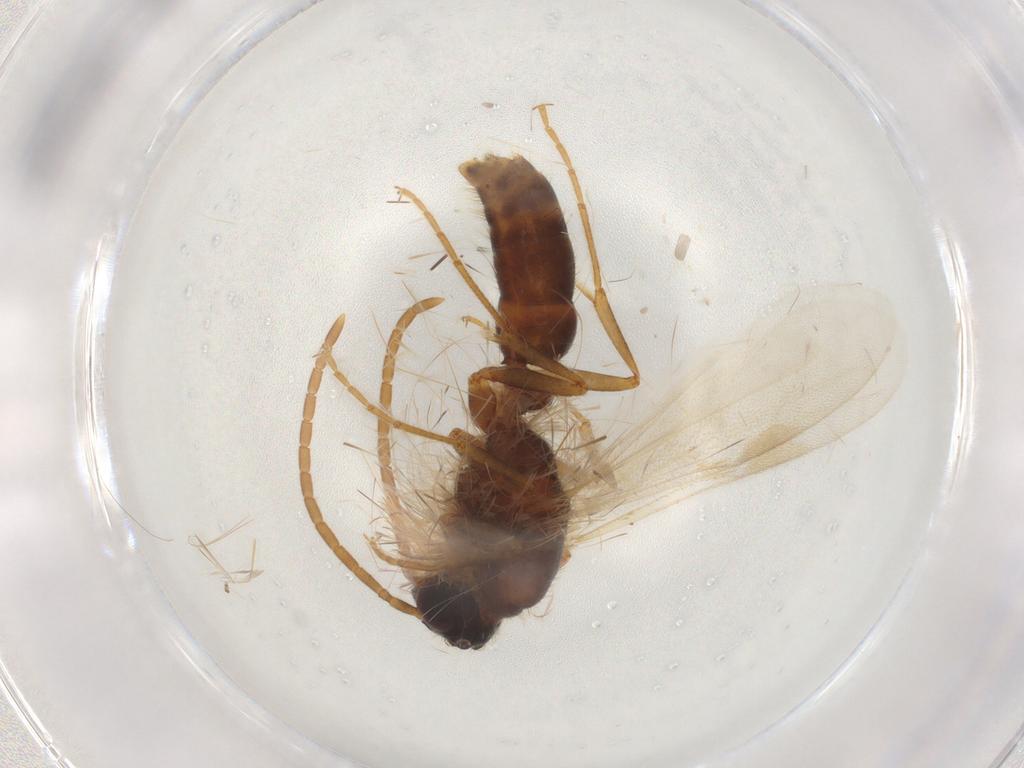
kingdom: Animalia
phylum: Arthropoda
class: Insecta
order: Hymenoptera
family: Formicidae
